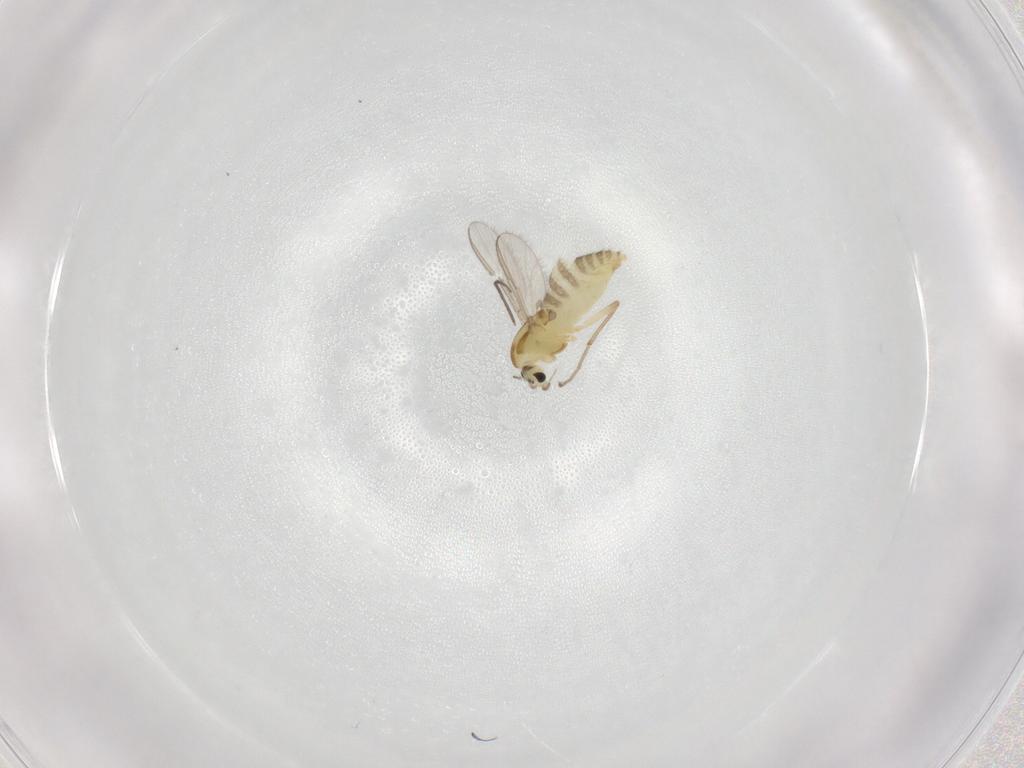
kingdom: Animalia
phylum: Arthropoda
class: Insecta
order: Diptera
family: Chironomidae
